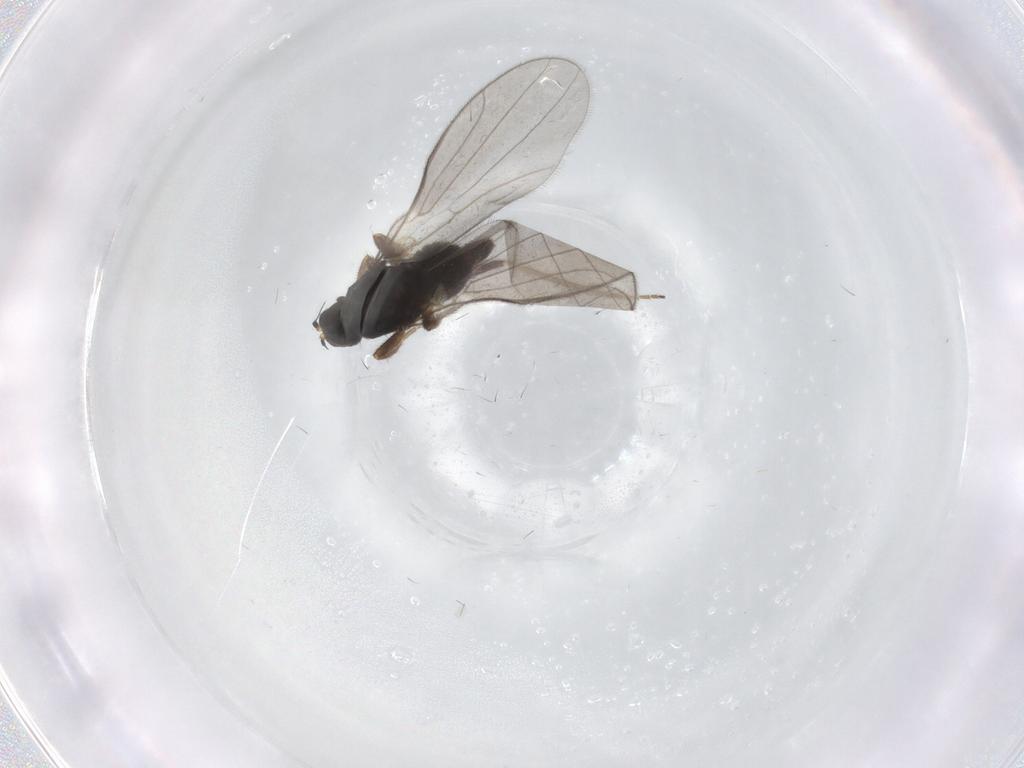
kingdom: Animalia
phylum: Arthropoda
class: Insecta
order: Diptera
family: Hybotidae
